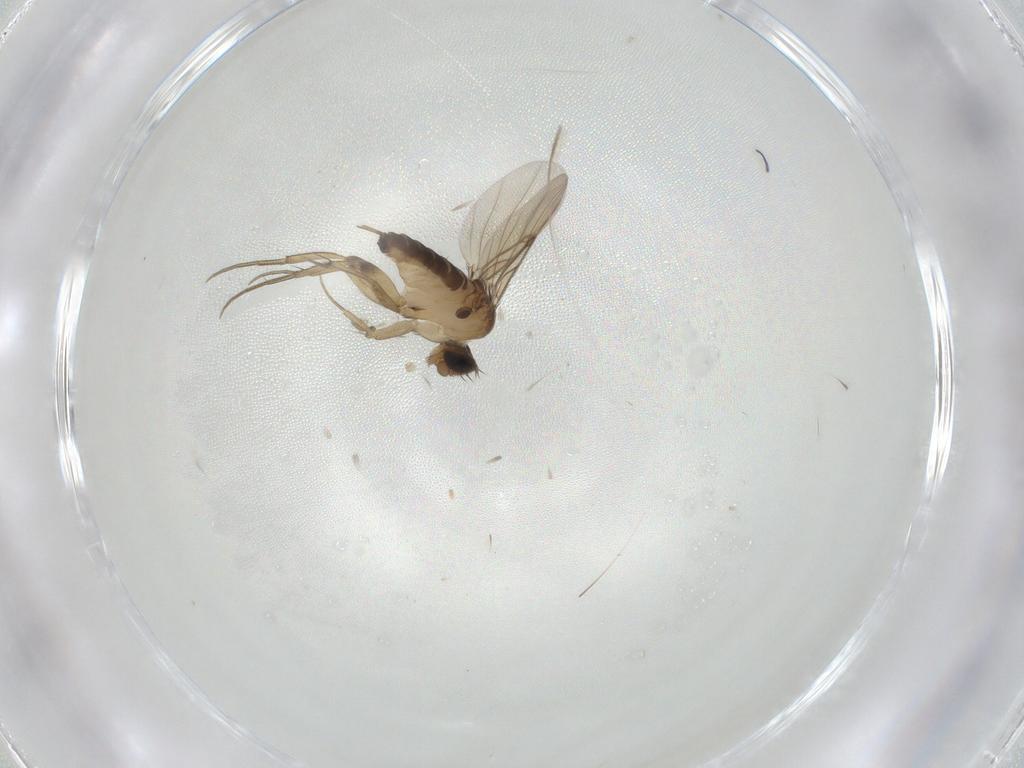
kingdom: Animalia
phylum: Arthropoda
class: Insecta
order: Diptera
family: Phoridae
